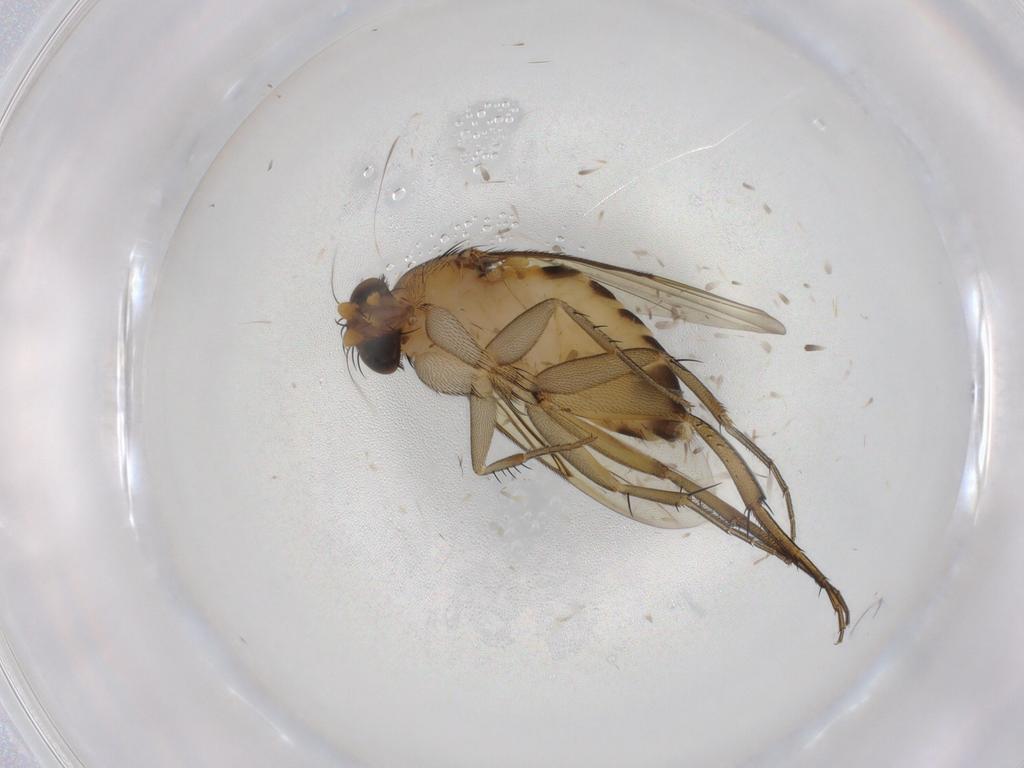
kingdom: Animalia
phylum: Arthropoda
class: Insecta
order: Diptera
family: Phoridae
